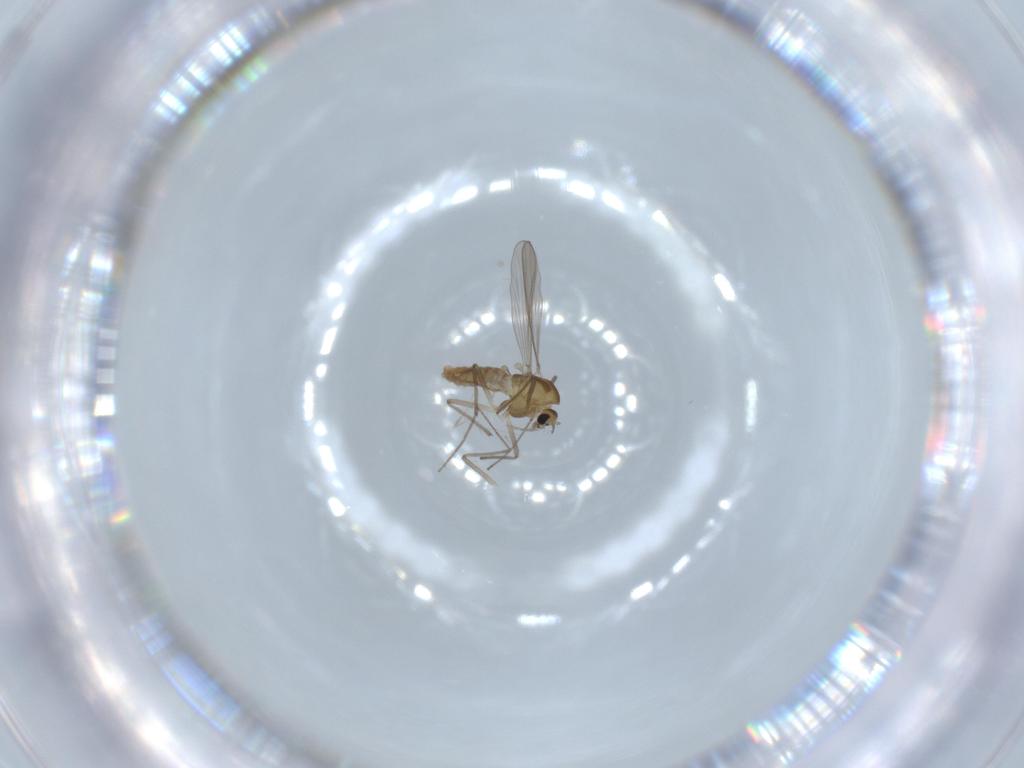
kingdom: Animalia
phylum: Arthropoda
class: Insecta
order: Diptera
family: Chironomidae
